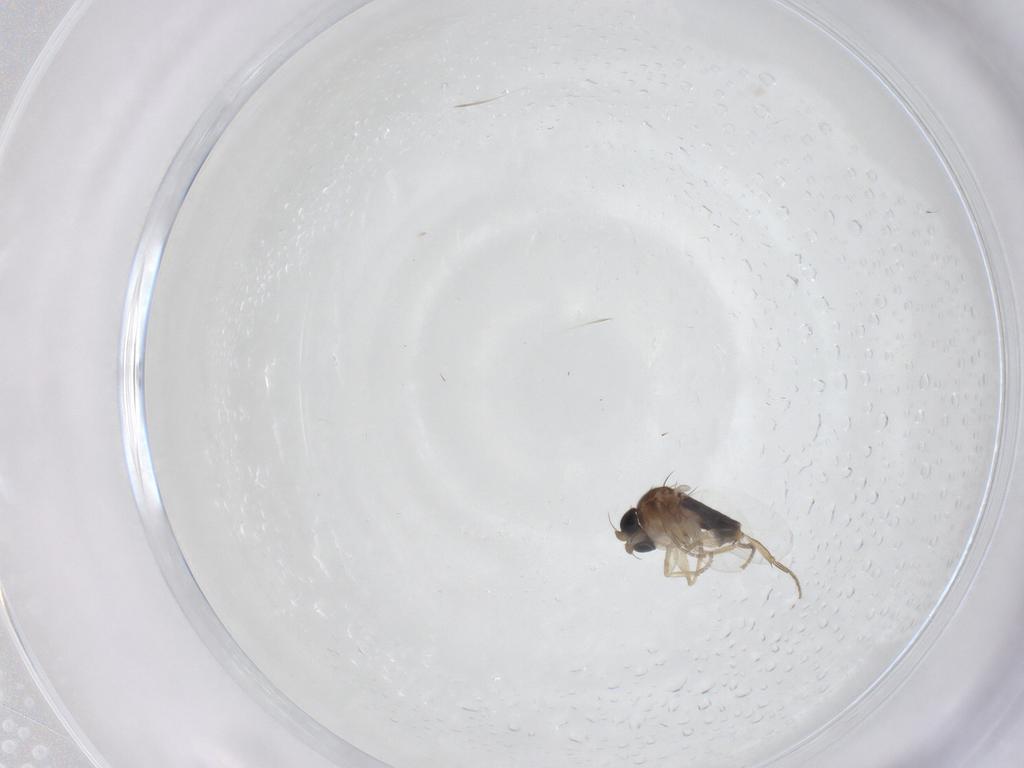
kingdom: Animalia
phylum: Arthropoda
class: Insecta
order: Diptera
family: Phoridae
